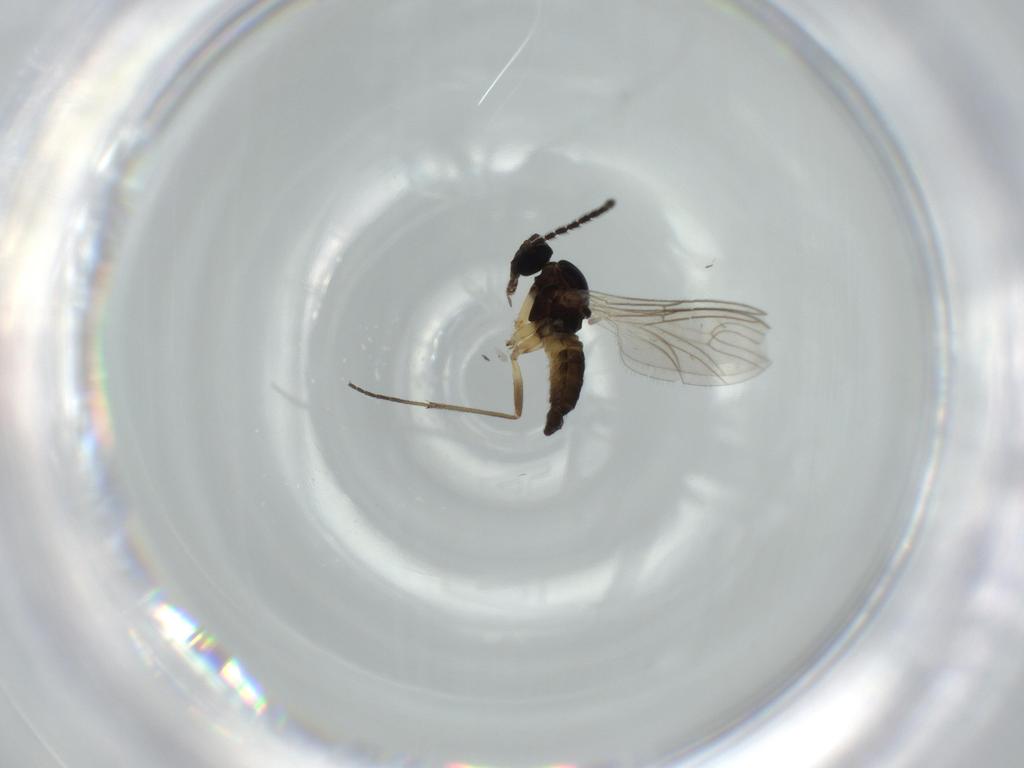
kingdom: Animalia
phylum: Arthropoda
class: Insecta
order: Diptera
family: Sciaridae
